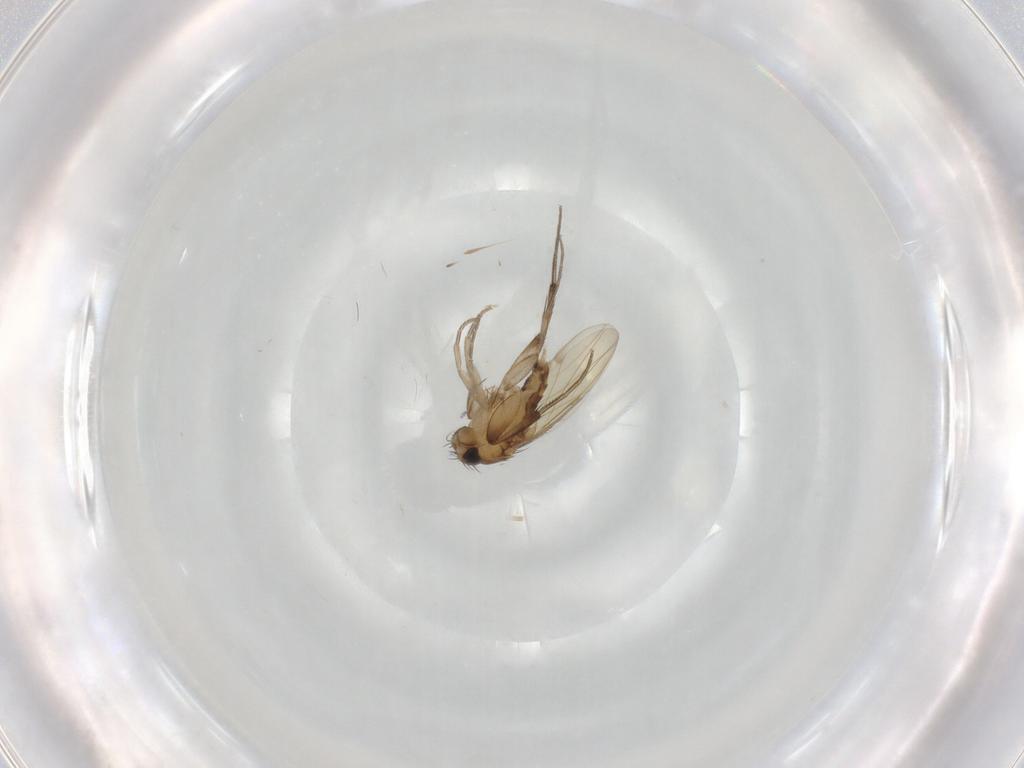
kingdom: Animalia
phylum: Arthropoda
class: Insecta
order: Diptera
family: Phoridae
